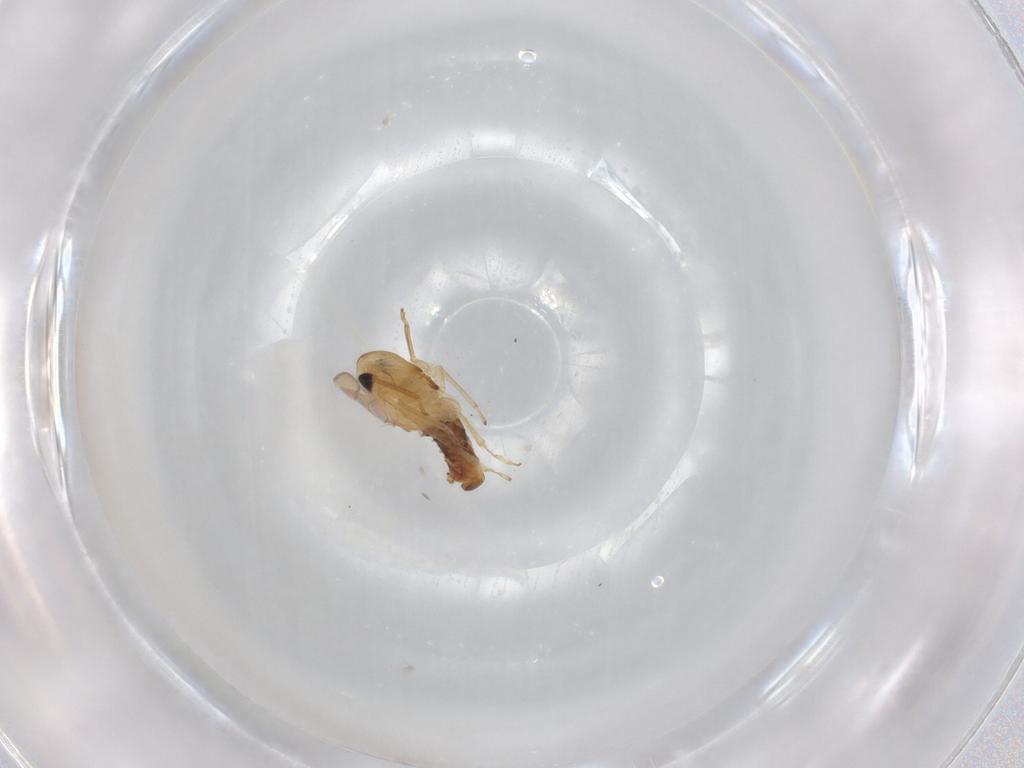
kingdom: Animalia
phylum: Arthropoda
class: Insecta
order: Hemiptera
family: Cicadellidae
